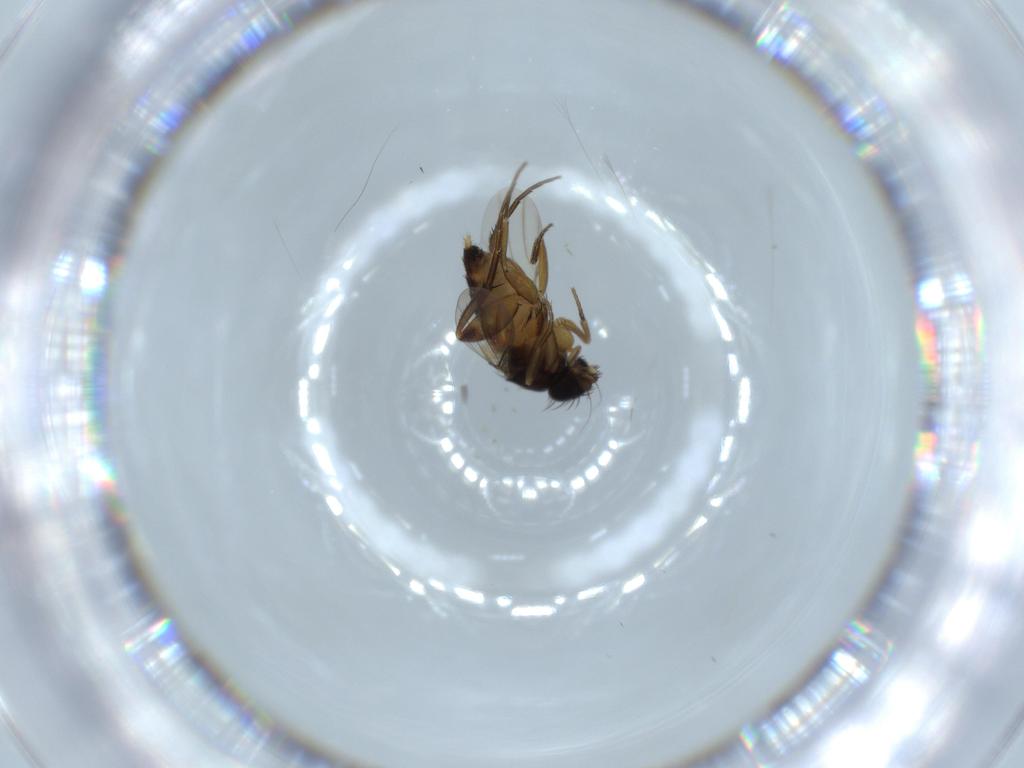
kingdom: Animalia
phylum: Arthropoda
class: Insecta
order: Diptera
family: Phoridae
